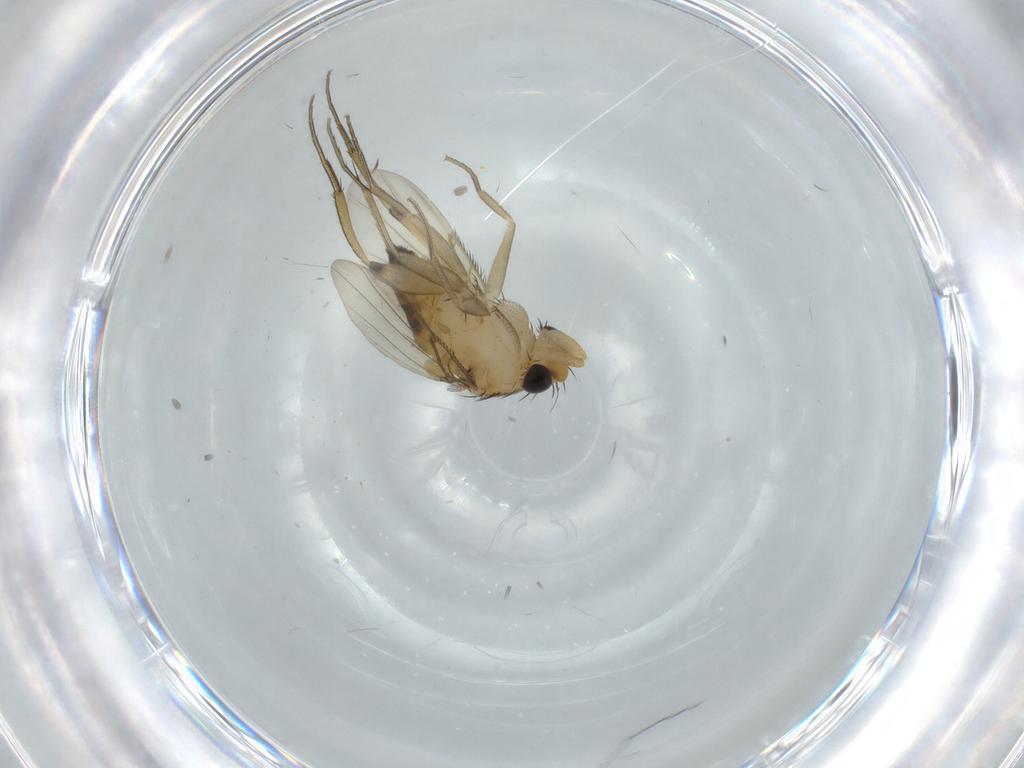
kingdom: Animalia
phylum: Arthropoda
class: Insecta
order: Diptera
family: Phoridae
